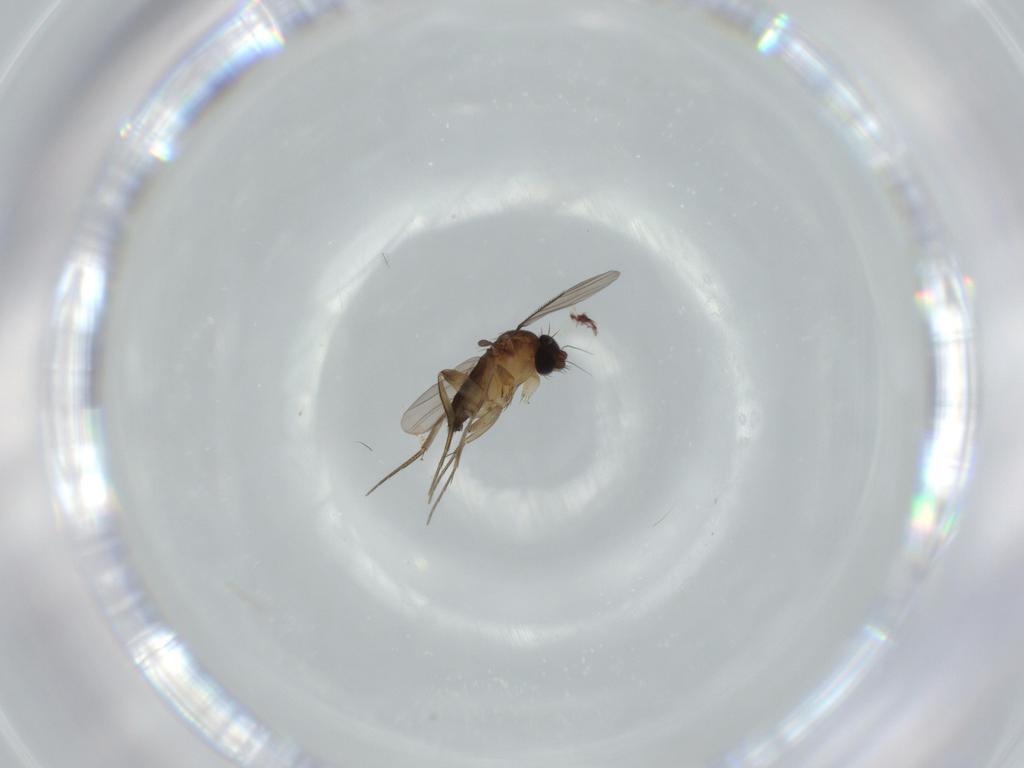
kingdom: Animalia
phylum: Arthropoda
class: Insecta
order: Diptera
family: Phoridae
